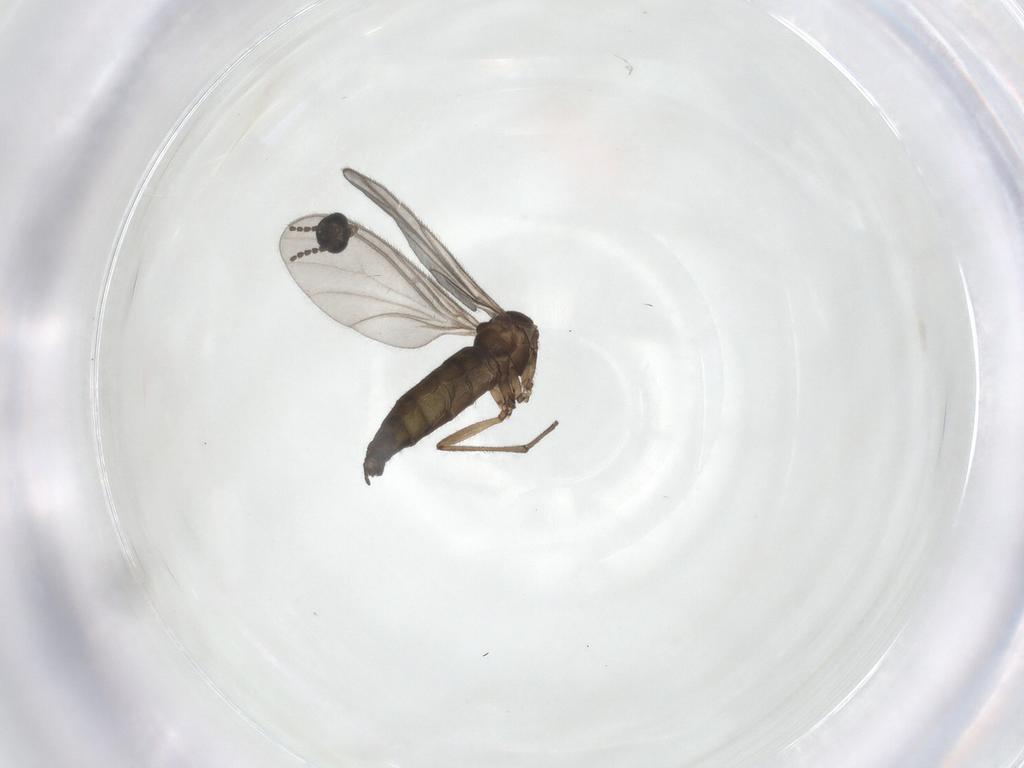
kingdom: Animalia
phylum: Arthropoda
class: Insecta
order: Diptera
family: Sciaridae
